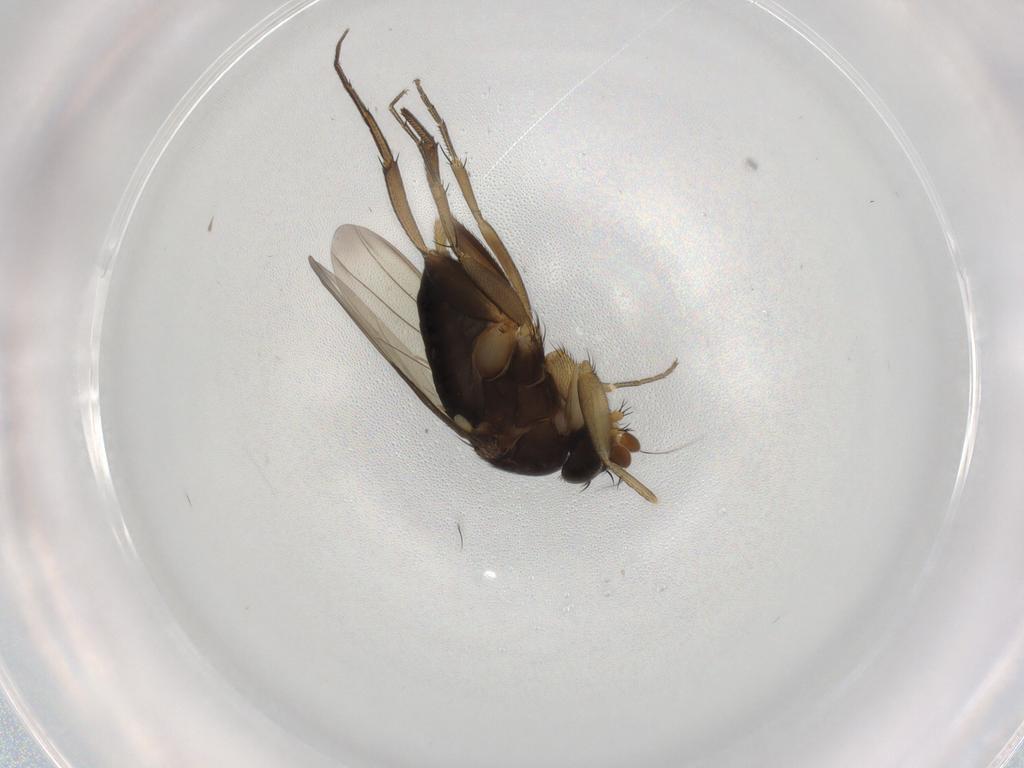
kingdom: Animalia
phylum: Arthropoda
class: Insecta
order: Diptera
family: Phoridae
